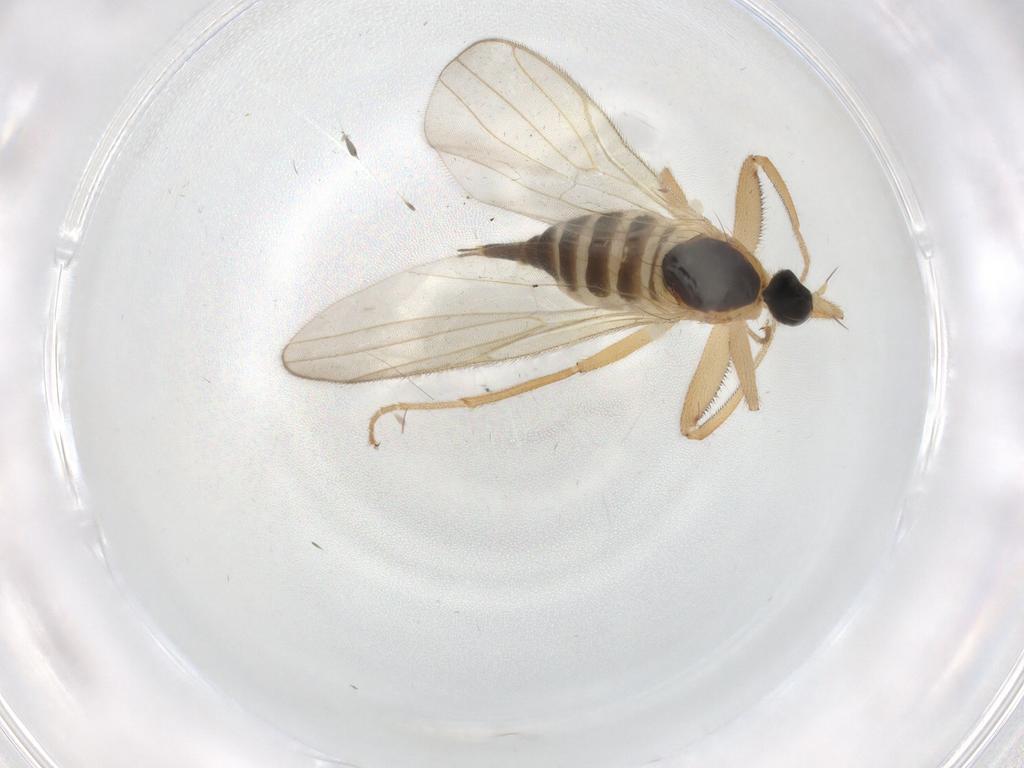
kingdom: Animalia
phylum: Arthropoda
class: Insecta
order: Diptera
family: Hybotidae
